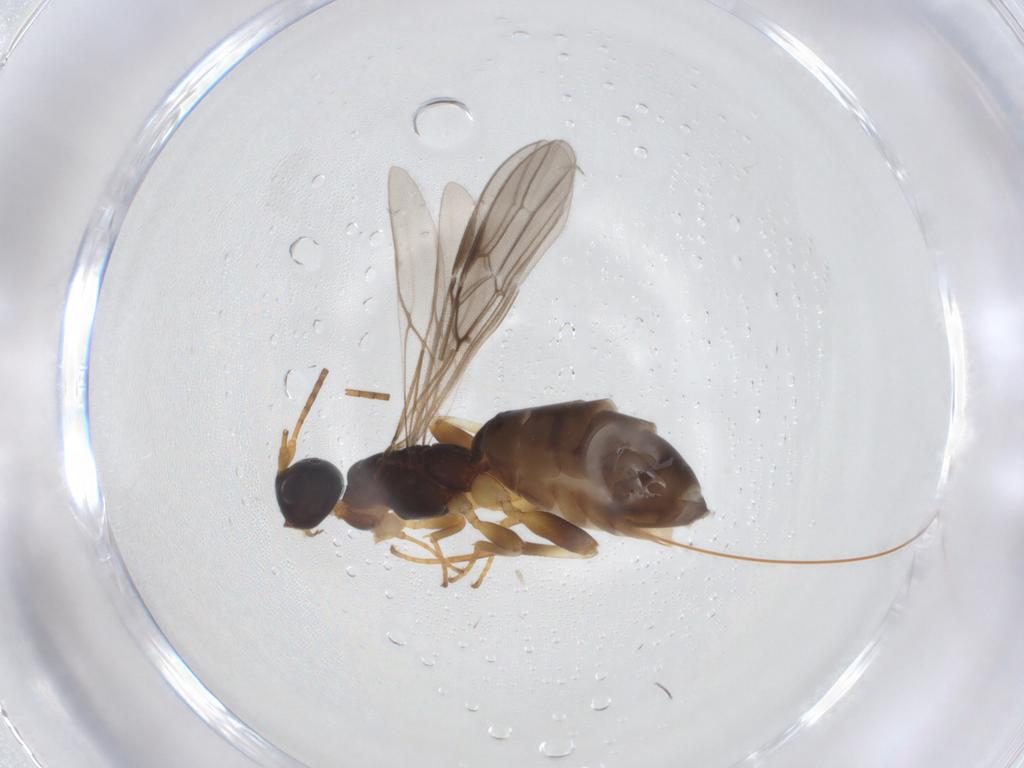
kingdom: Animalia
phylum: Arthropoda
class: Insecta
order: Hymenoptera
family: Braconidae
